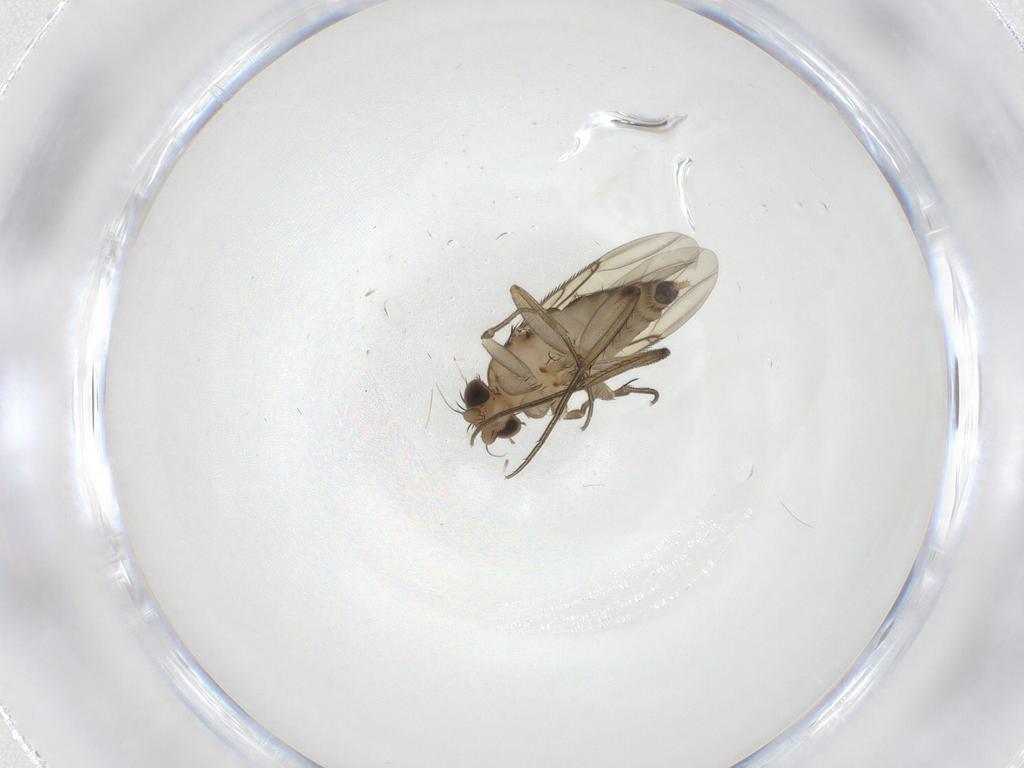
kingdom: Animalia
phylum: Arthropoda
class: Insecta
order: Diptera
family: Phoridae
